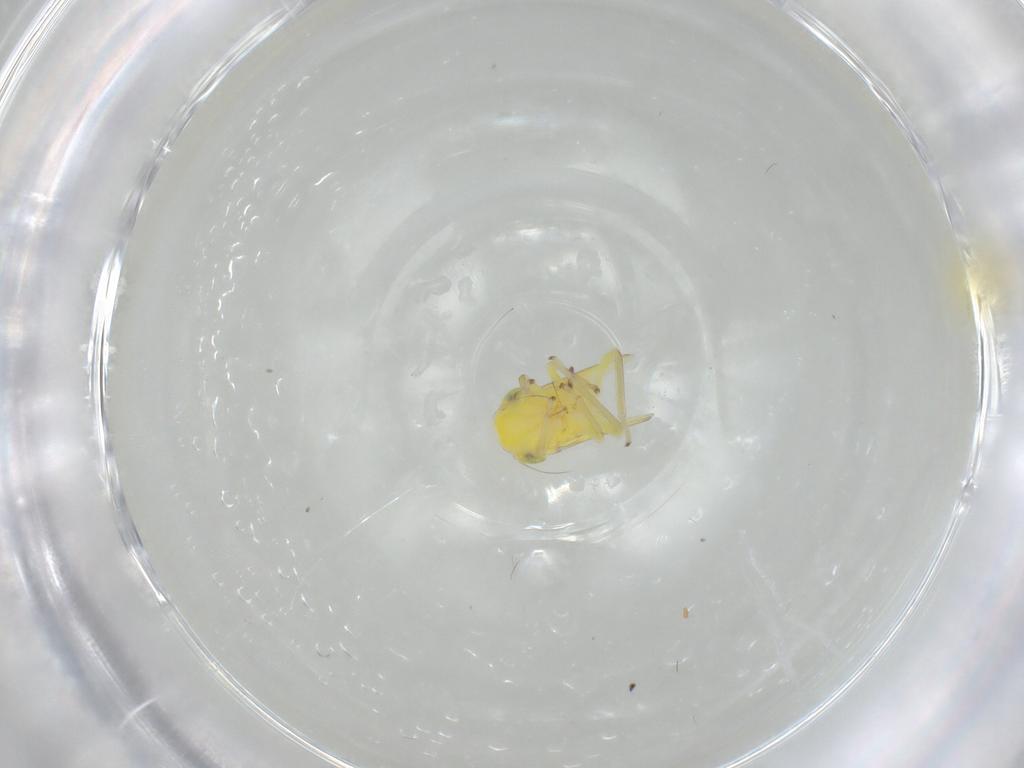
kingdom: Animalia
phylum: Arthropoda
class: Insecta
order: Hemiptera
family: Cicadellidae
